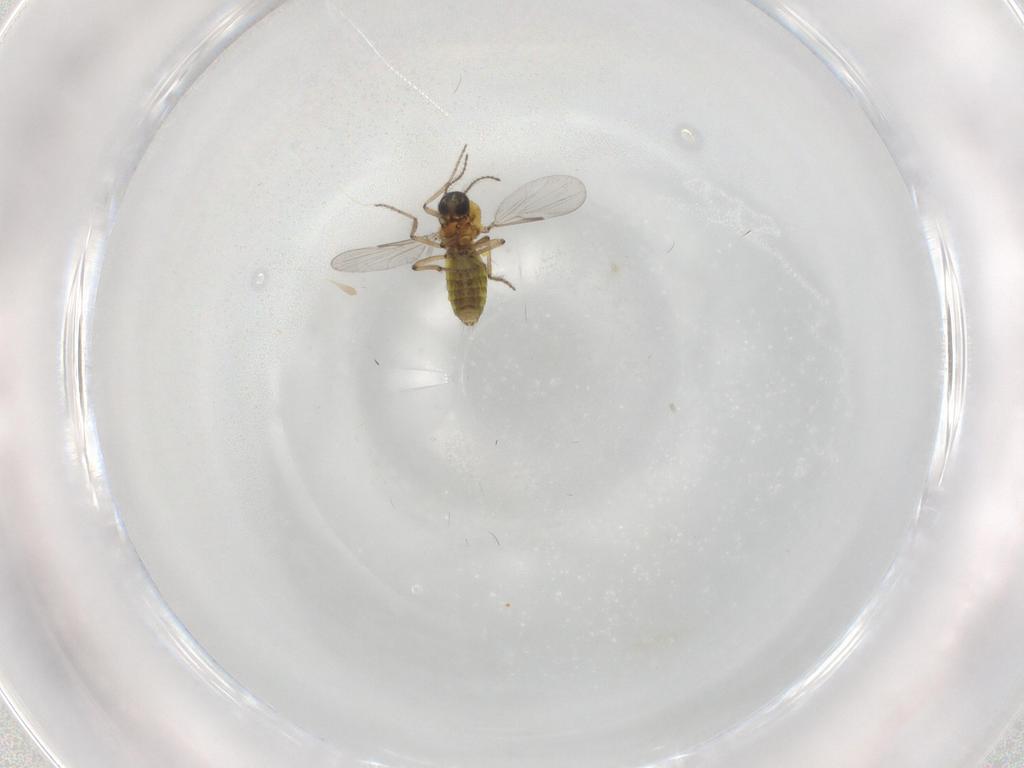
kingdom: Animalia
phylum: Arthropoda
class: Insecta
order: Diptera
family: Ceratopogonidae
